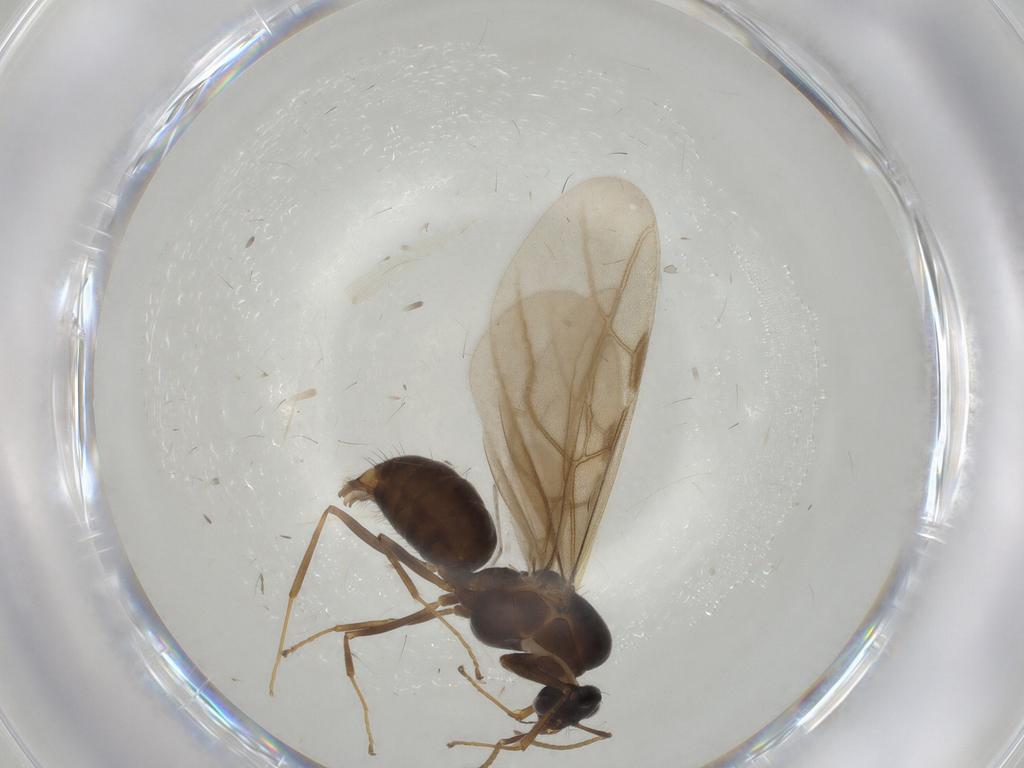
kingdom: Animalia
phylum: Arthropoda
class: Insecta
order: Hymenoptera
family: Formicidae
